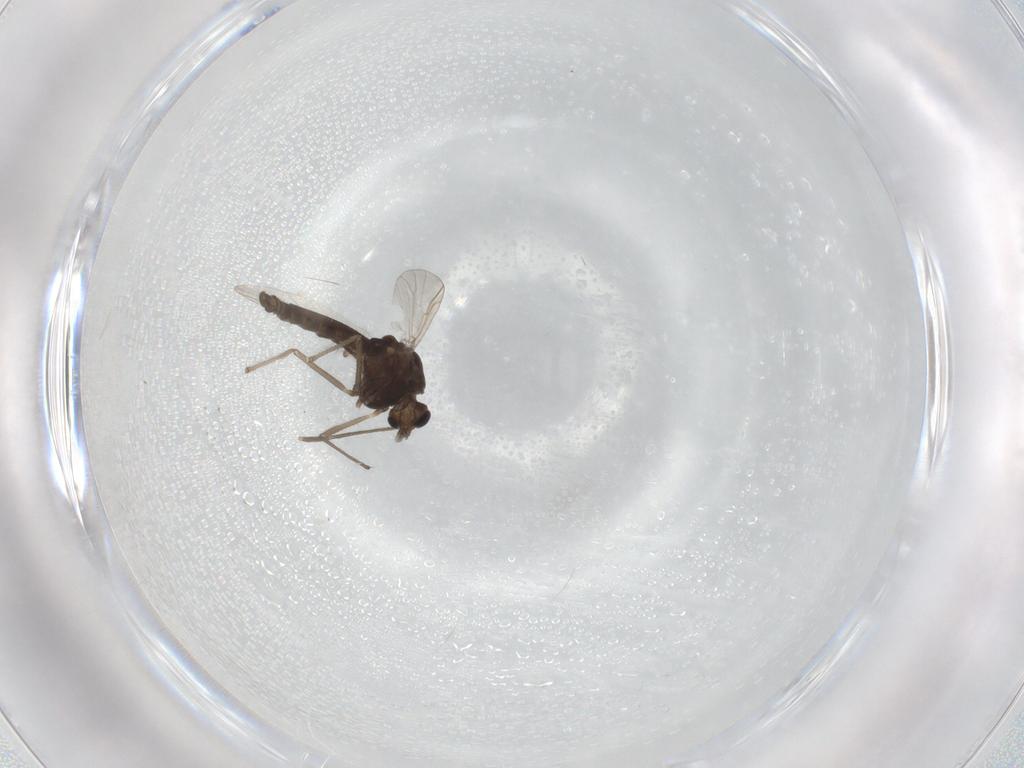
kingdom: Animalia
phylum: Arthropoda
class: Insecta
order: Diptera
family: Chironomidae
